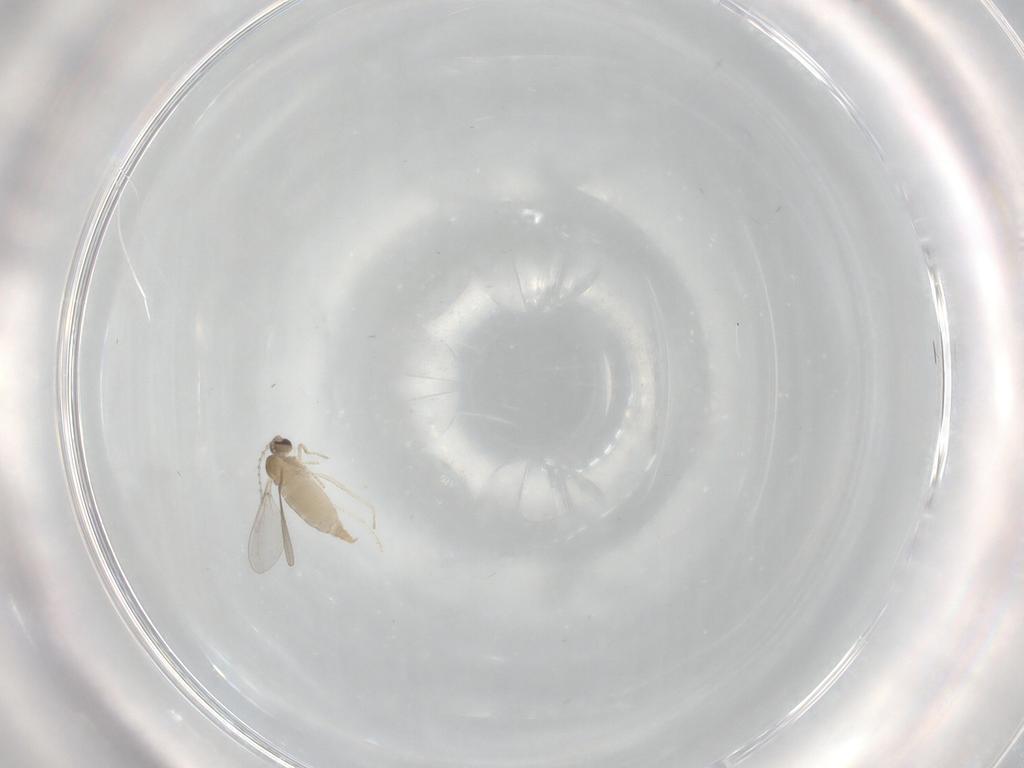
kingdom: Animalia
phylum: Arthropoda
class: Insecta
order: Diptera
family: Cecidomyiidae
